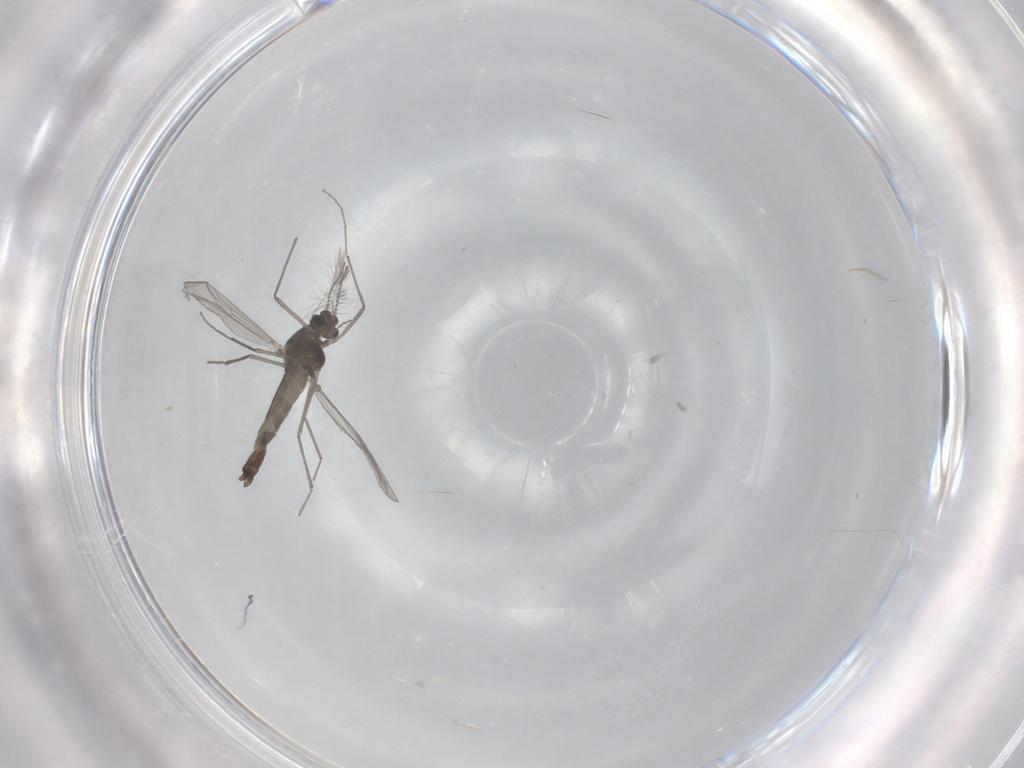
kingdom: Animalia
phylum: Arthropoda
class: Insecta
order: Diptera
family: Chironomidae
